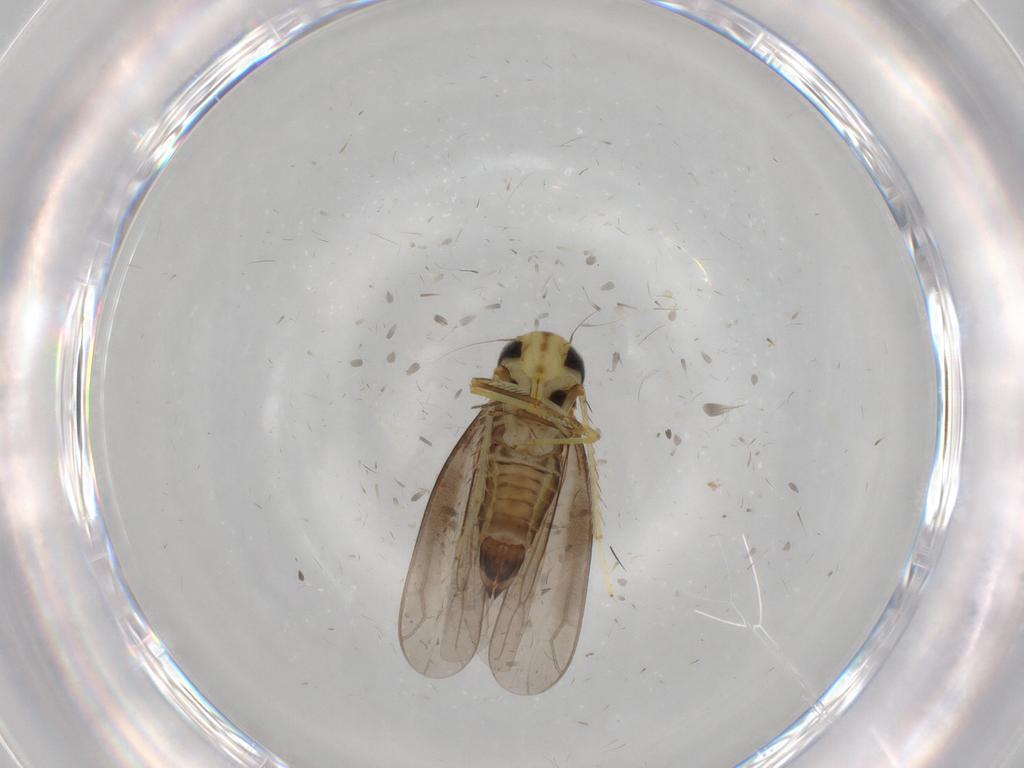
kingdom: Animalia
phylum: Arthropoda
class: Insecta
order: Hemiptera
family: Cicadellidae
